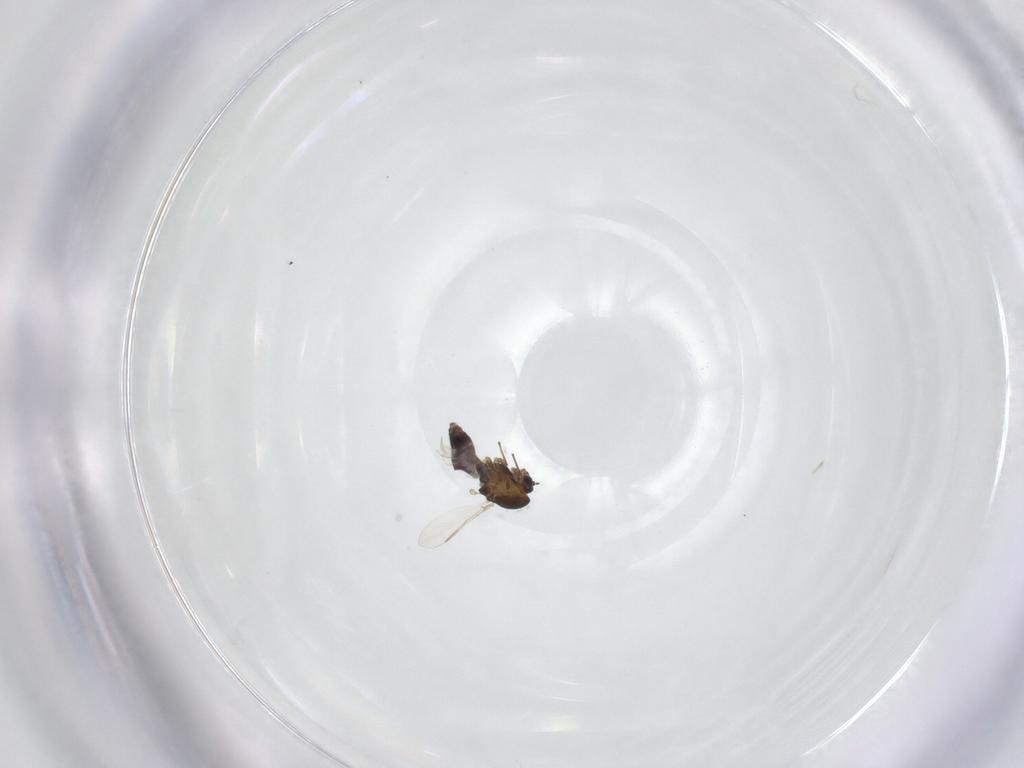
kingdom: Animalia
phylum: Arthropoda
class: Insecta
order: Diptera
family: Chironomidae
